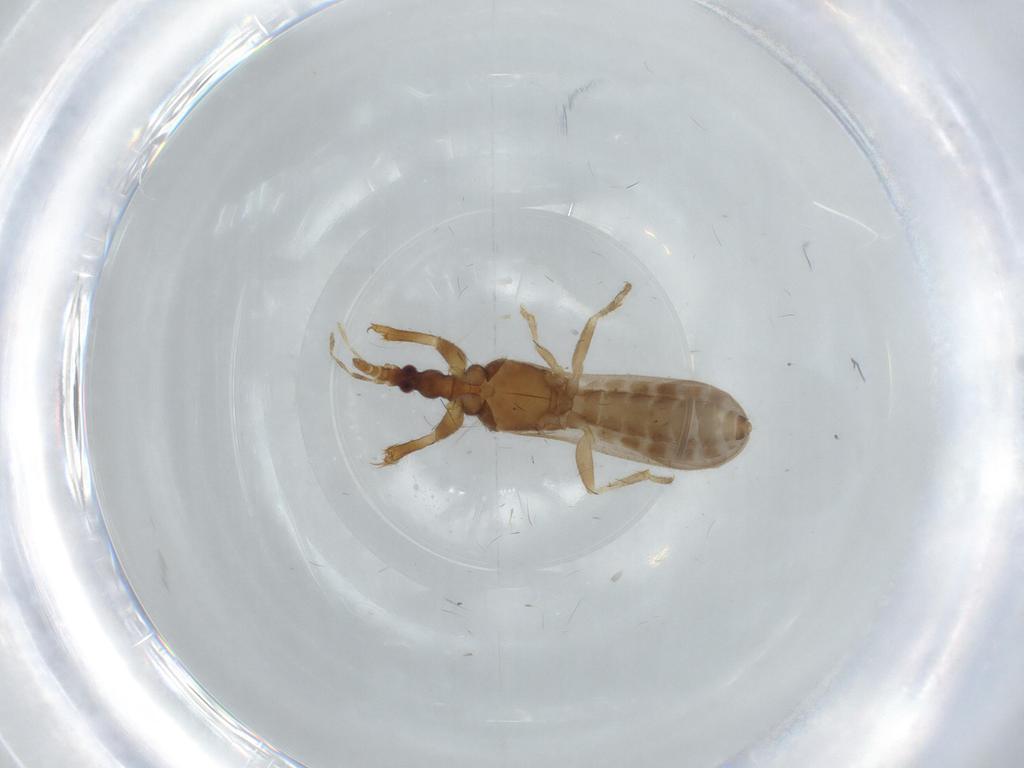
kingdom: Animalia
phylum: Arthropoda
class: Insecta
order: Hemiptera
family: Enicocephalidae
